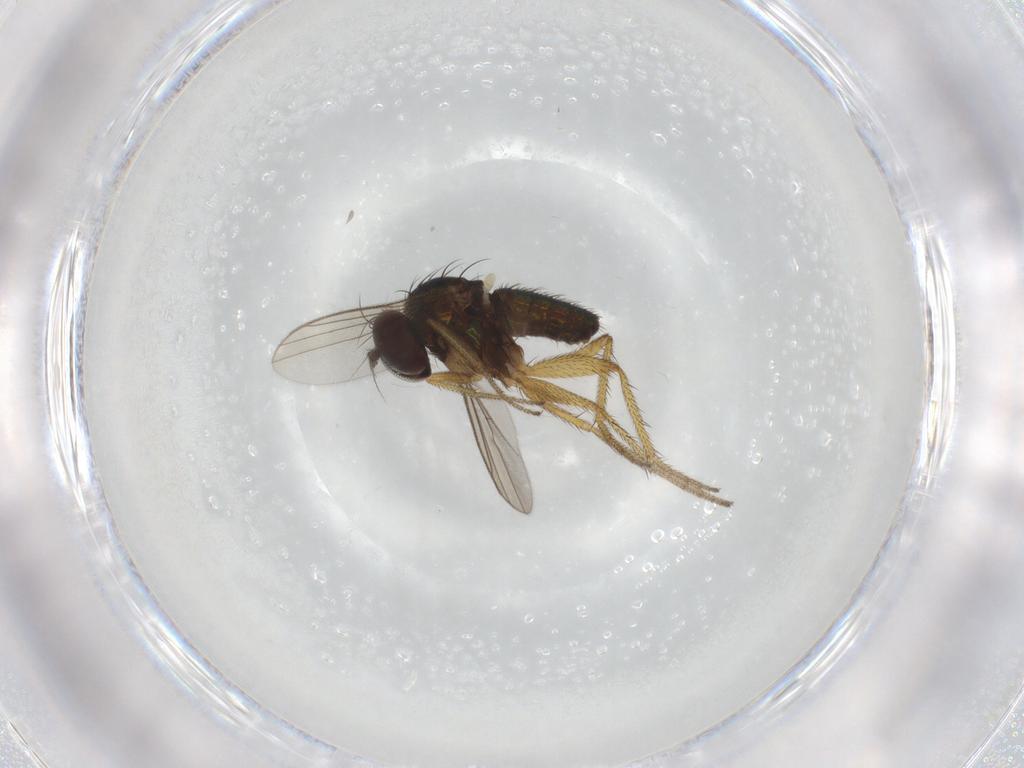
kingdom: Animalia
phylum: Arthropoda
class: Insecta
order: Diptera
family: Dolichopodidae
